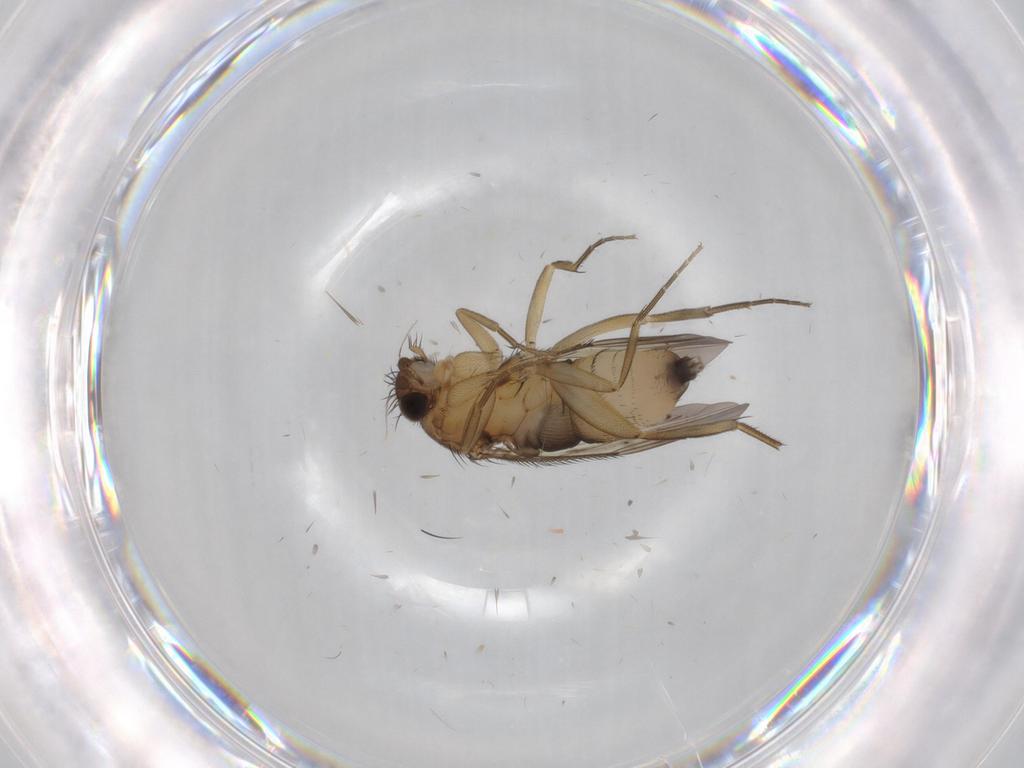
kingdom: Animalia
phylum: Arthropoda
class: Insecta
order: Diptera
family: Phoridae
